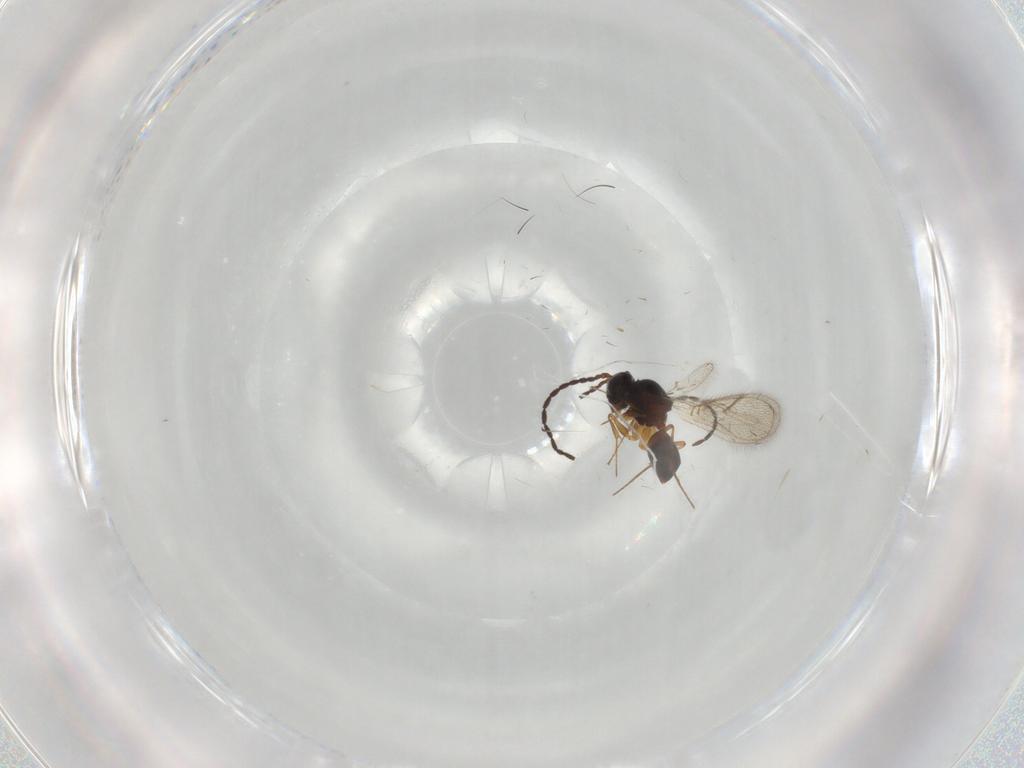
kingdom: Animalia
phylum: Arthropoda
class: Insecta
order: Hymenoptera
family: Figitidae
